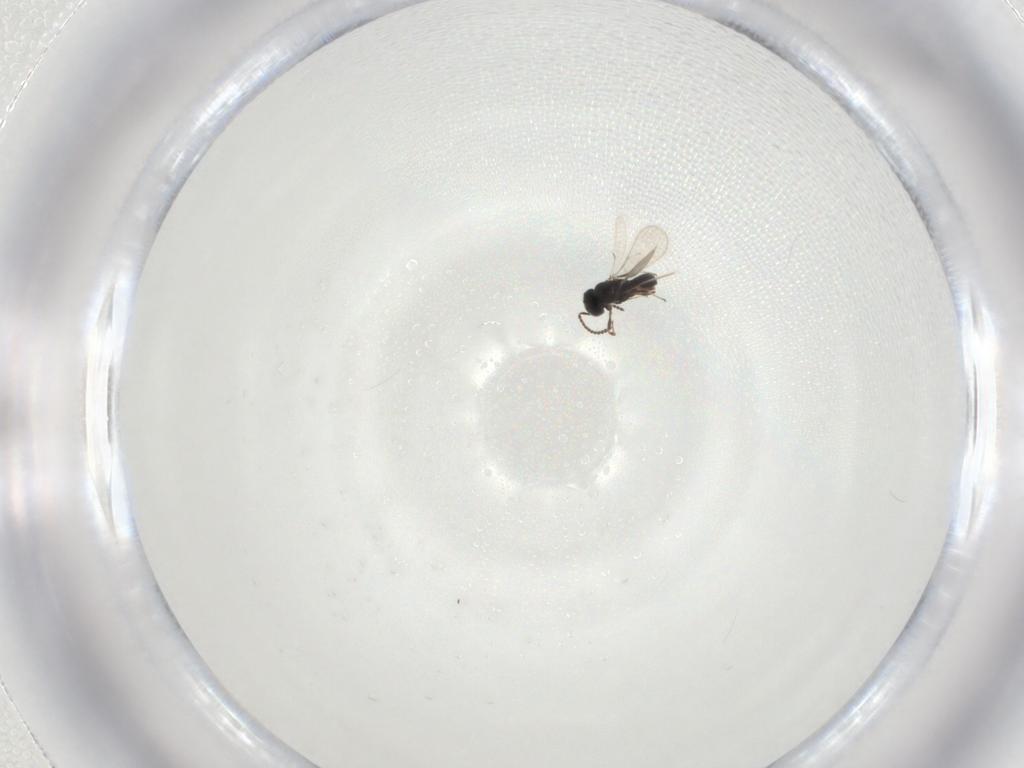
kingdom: Animalia
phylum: Arthropoda
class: Insecta
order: Hymenoptera
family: Scelionidae
